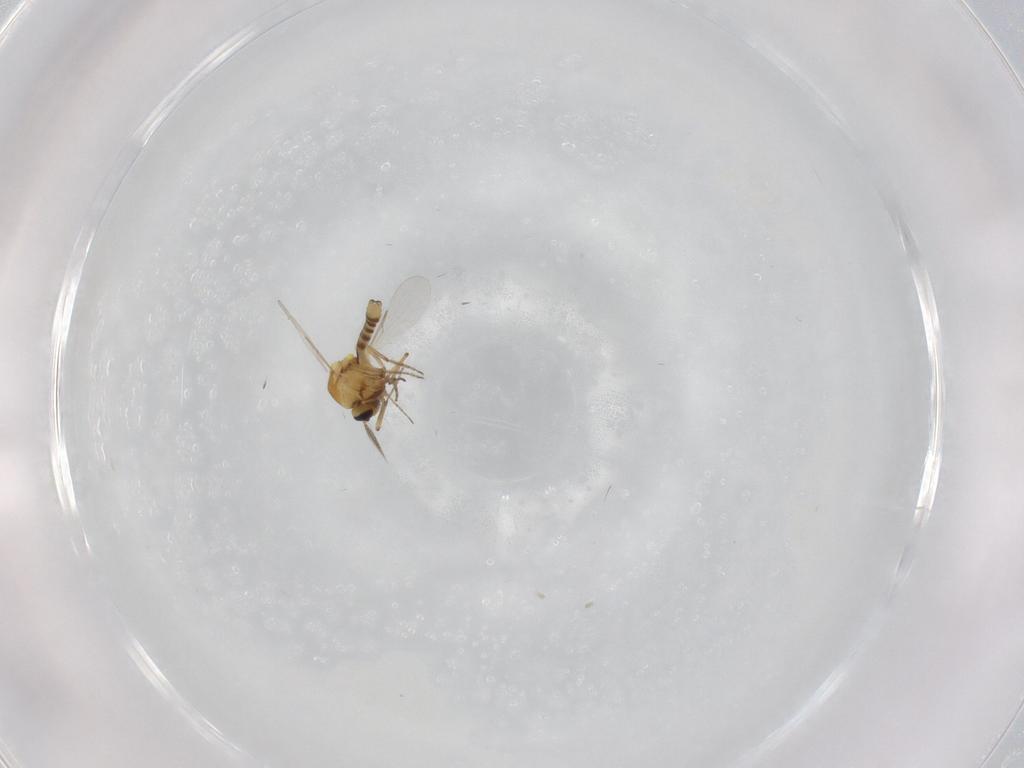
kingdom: Animalia
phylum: Arthropoda
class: Insecta
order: Diptera
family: Ceratopogonidae
